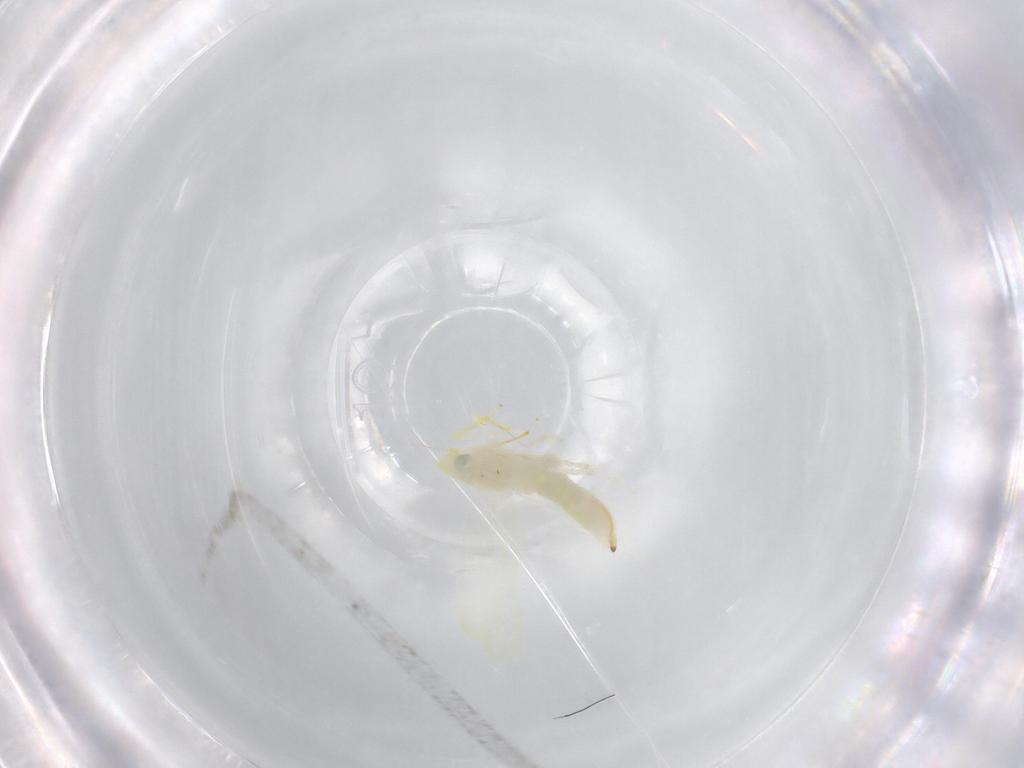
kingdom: Animalia
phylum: Arthropoda
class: Insecta
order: Hemiptera
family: Cicadellidae
